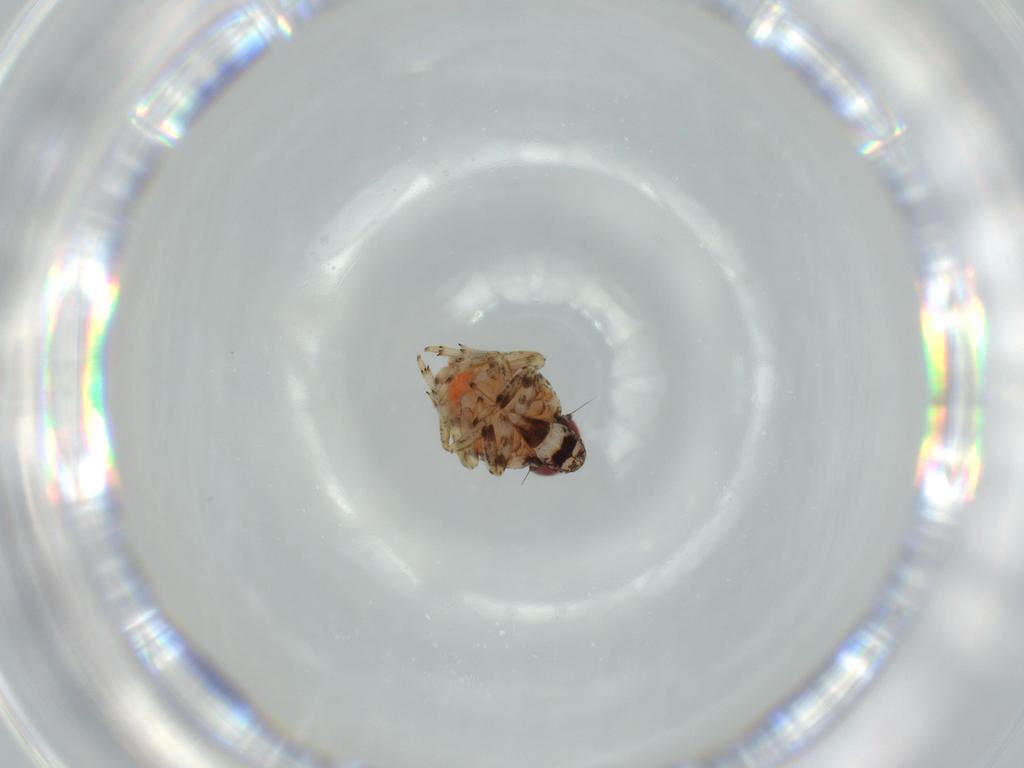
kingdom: Animalia
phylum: Arthropoda
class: Insecta
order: Hemiptera
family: Issidae
